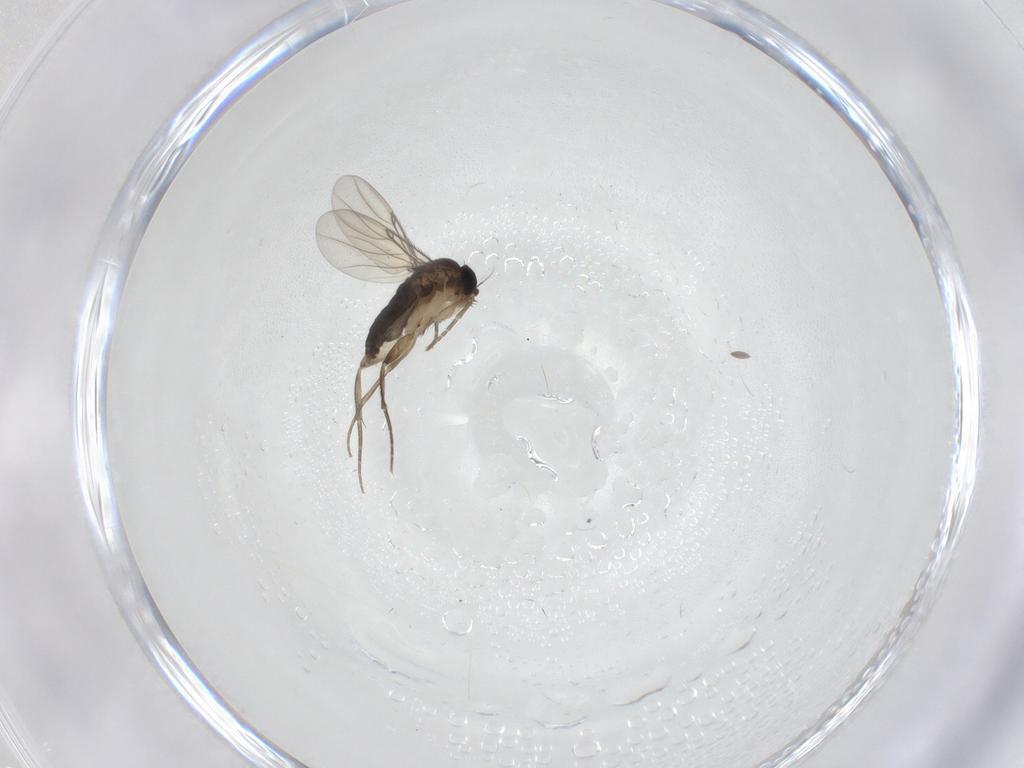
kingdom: Animalia
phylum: Arthropoda
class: Insecta
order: Diptera
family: Phoridae
